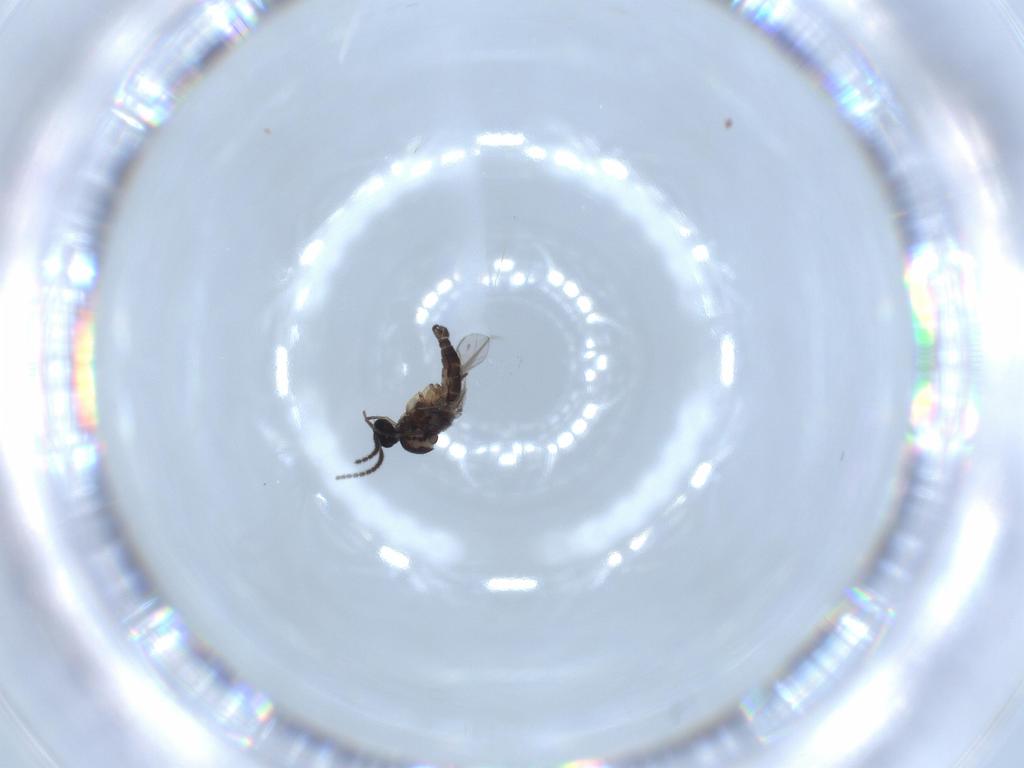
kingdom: Animalia
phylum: Arthropoda
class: Insecta
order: Diptera
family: Sciaridae
